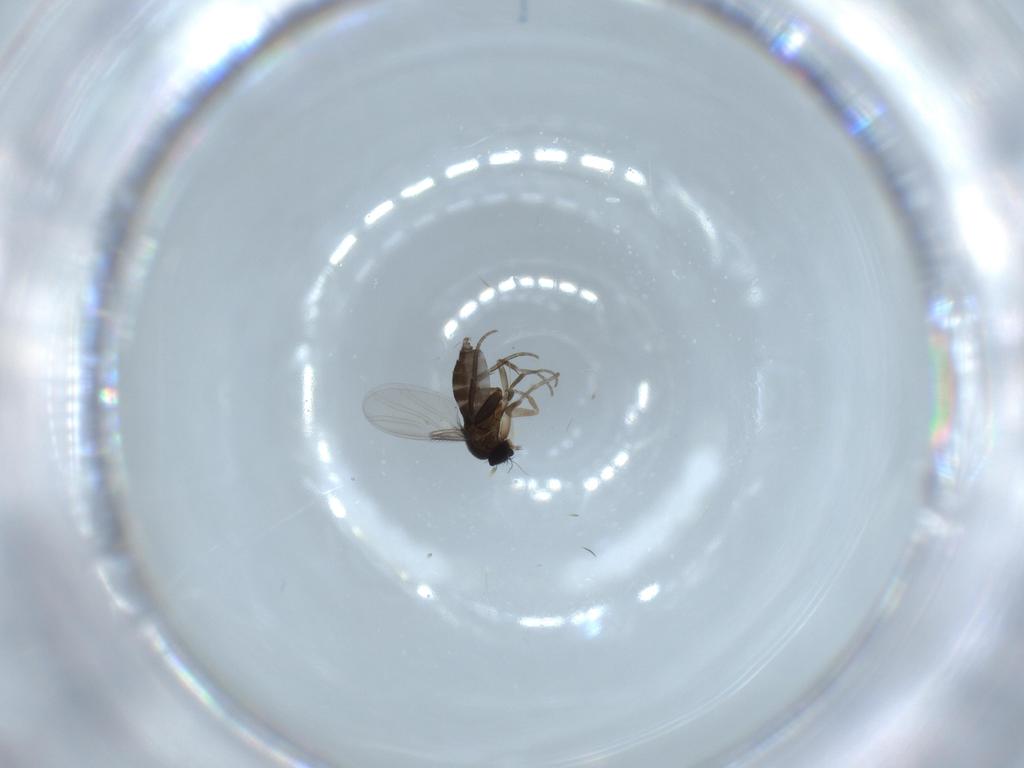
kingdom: Animalia
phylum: Arthropoda
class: Insecta
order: Diptera
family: Phoridae
